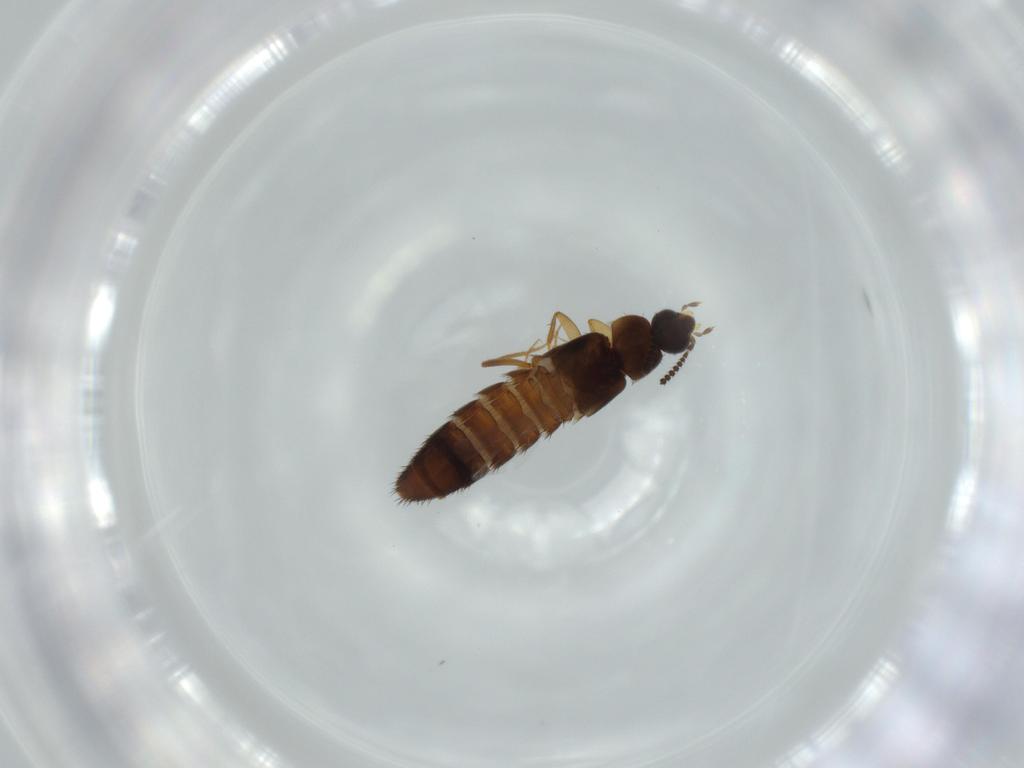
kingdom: Animalia
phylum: Arthropoda
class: Insecta
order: Coleoptera
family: Staphylinidae
